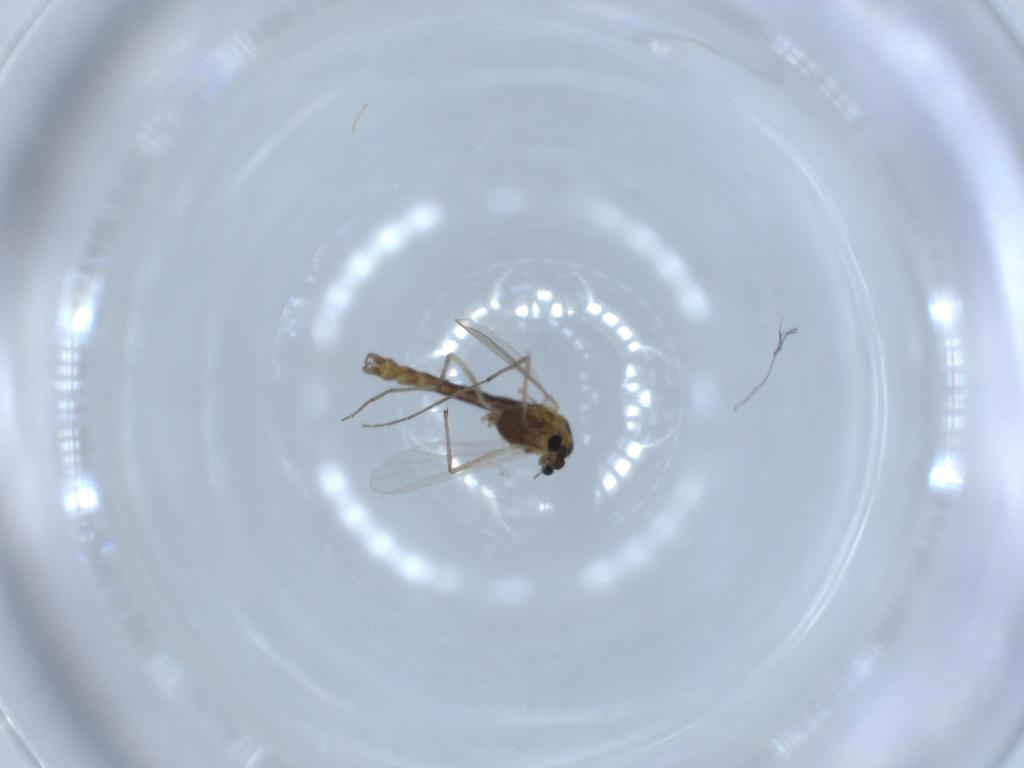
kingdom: Animalia
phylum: Arthropoda
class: Insecta
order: Diptera
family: Chironomidae
